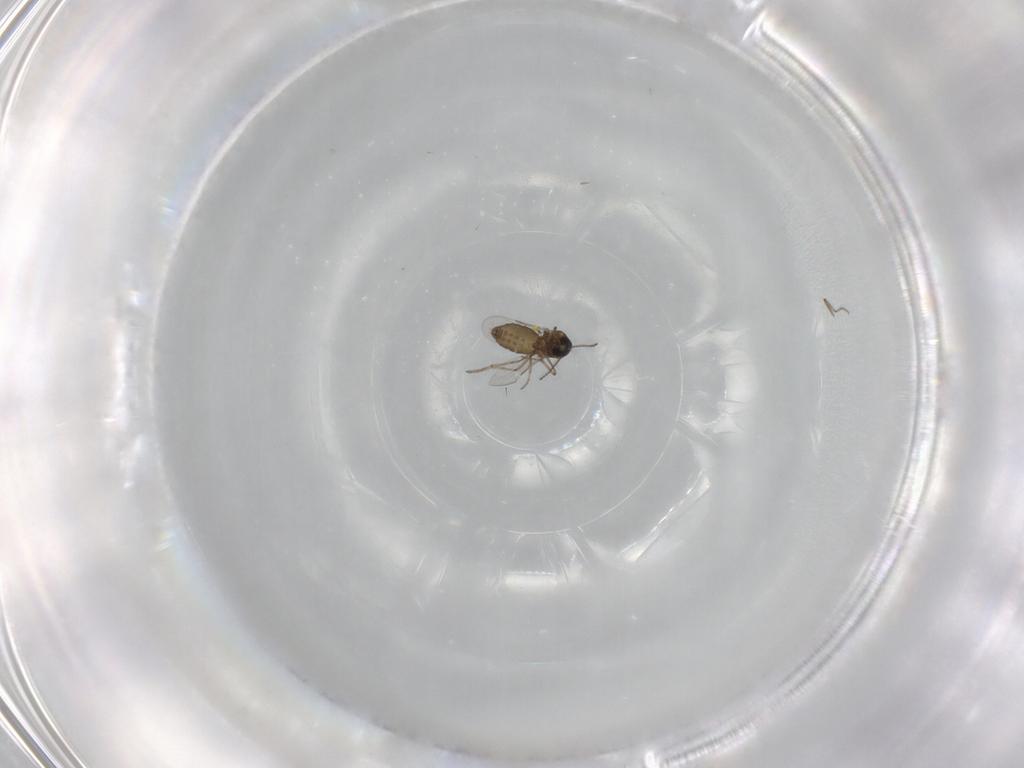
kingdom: Animalia
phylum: Arthropoda
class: Insecta
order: Diptera
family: Ceratopogonidae
